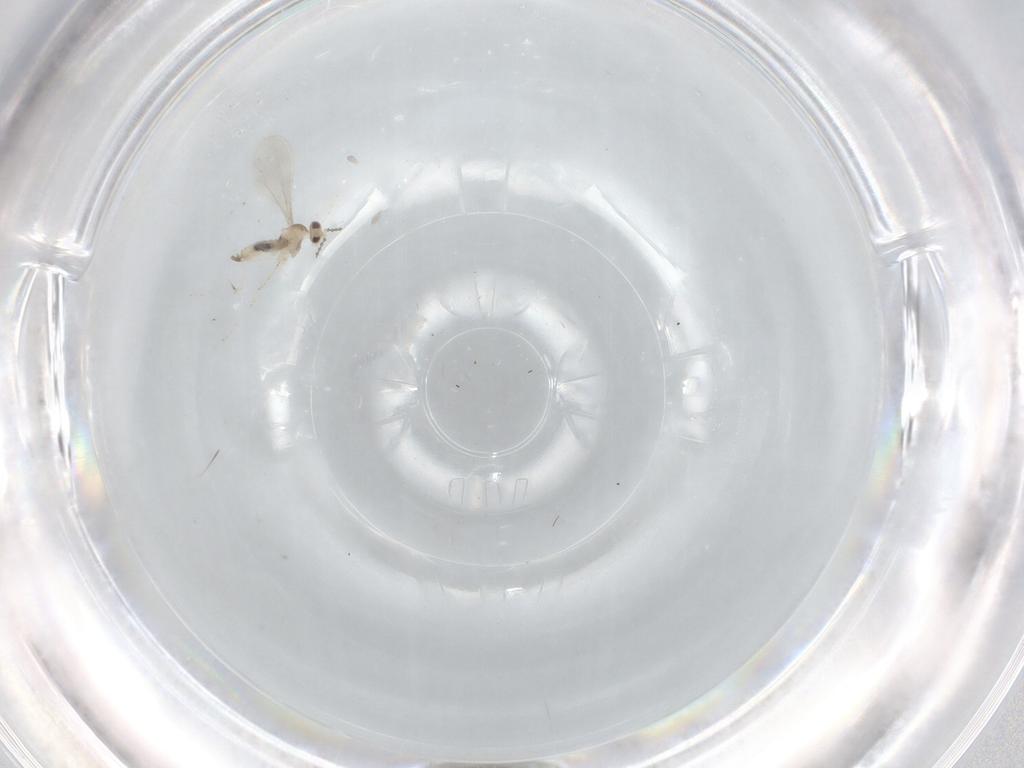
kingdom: Animalia
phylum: Arthropoda
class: Insecta
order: Diptera
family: Cecidomyiidae
